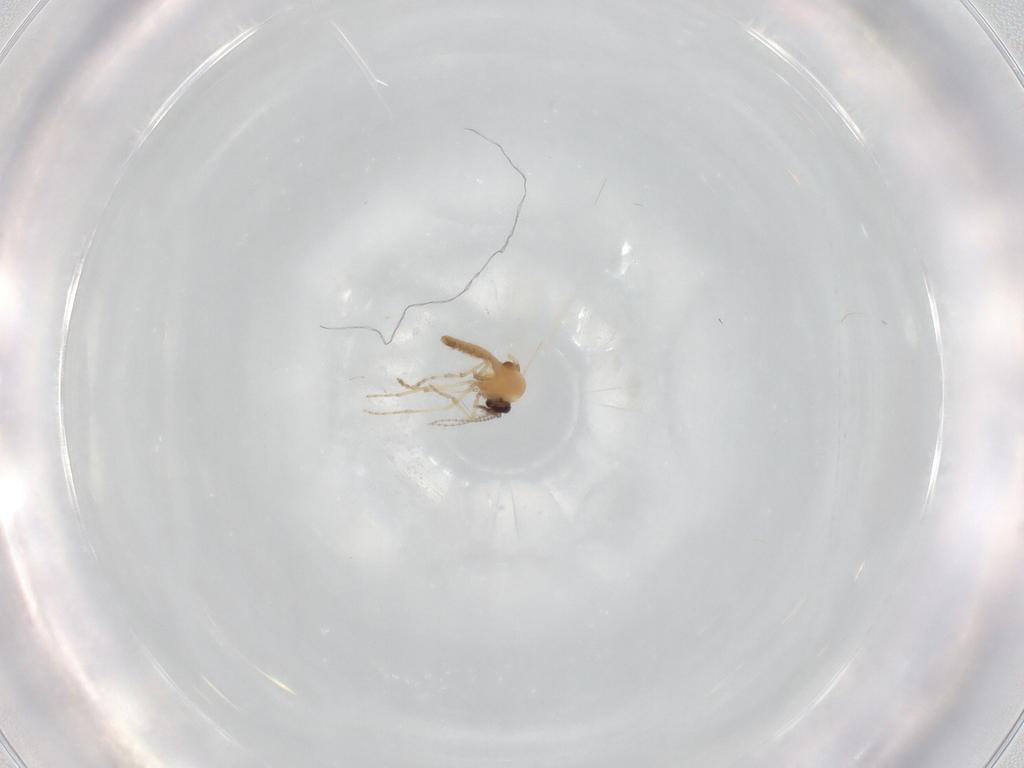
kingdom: Animalia
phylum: Arthropoda
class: Insecta
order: Diptera
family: Ceratopogonidae
